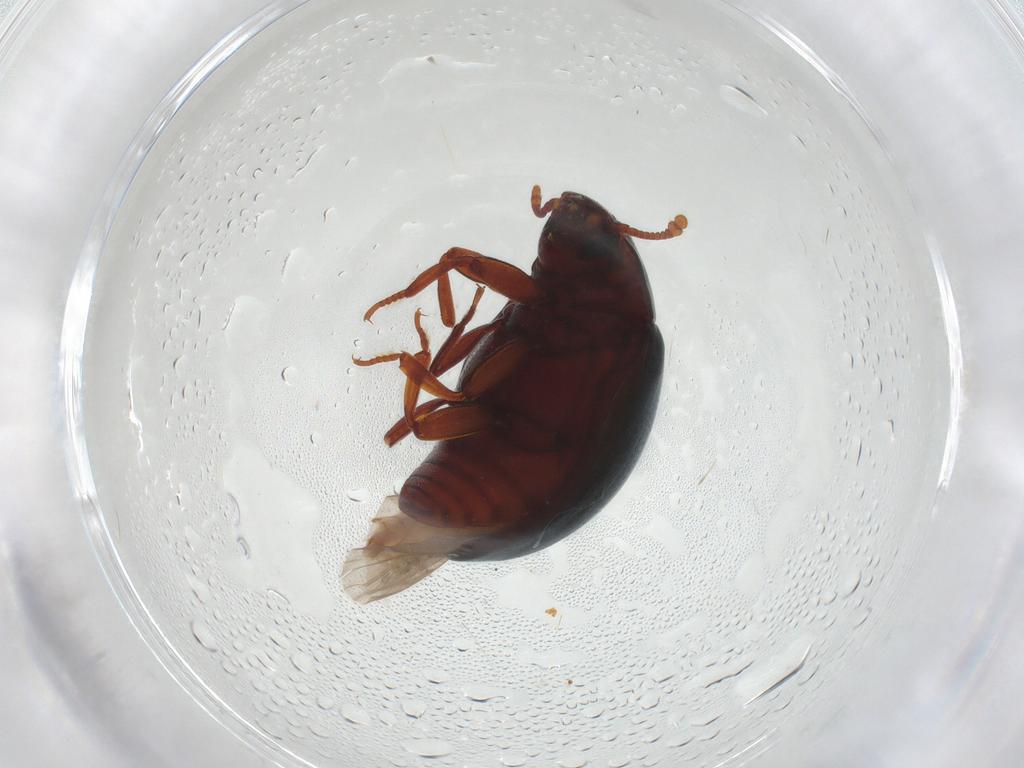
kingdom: Animalia
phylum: Arthropoda
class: Insecta
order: Coleoptera
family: Zopheridae
